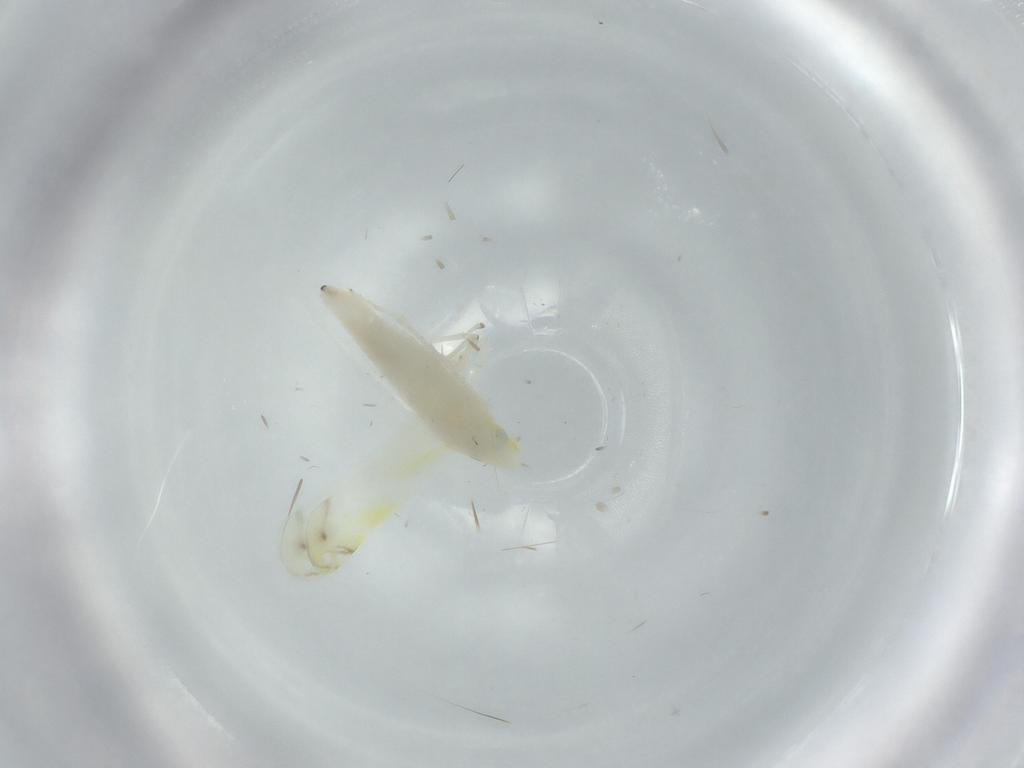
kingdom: Animalia
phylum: Arthropoda
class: Insecta
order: Hemiptera
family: Cicadellidae
